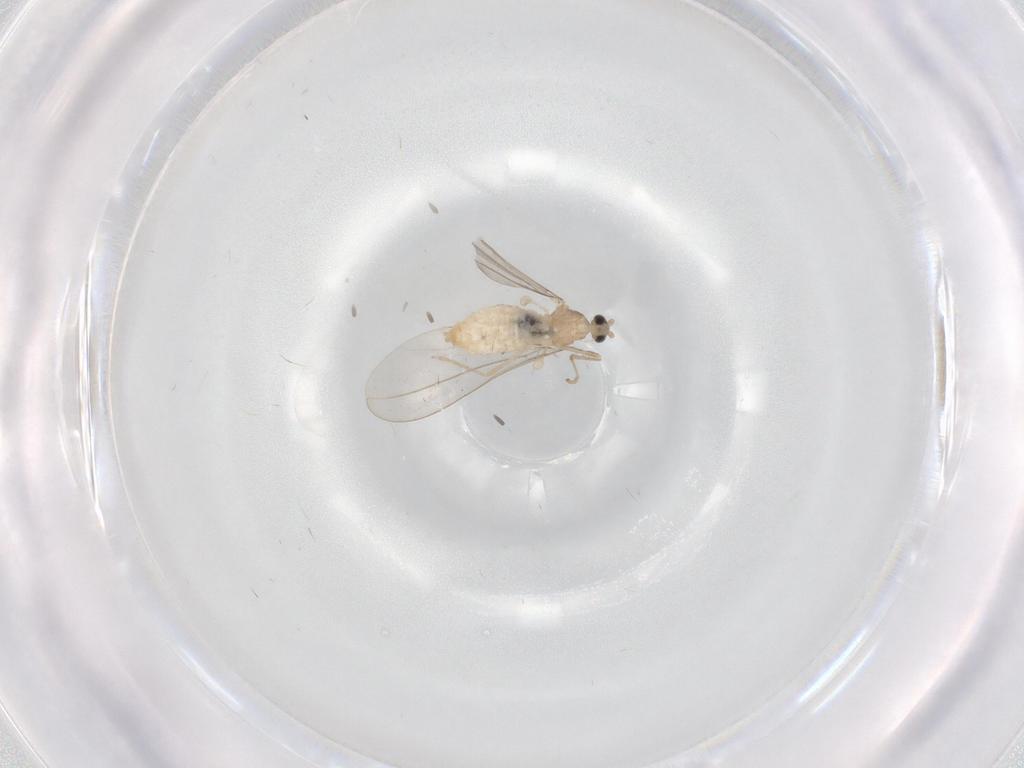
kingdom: Animalia
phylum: Arthropoda
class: Insecta
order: Diptera
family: Cecidomyiidae
